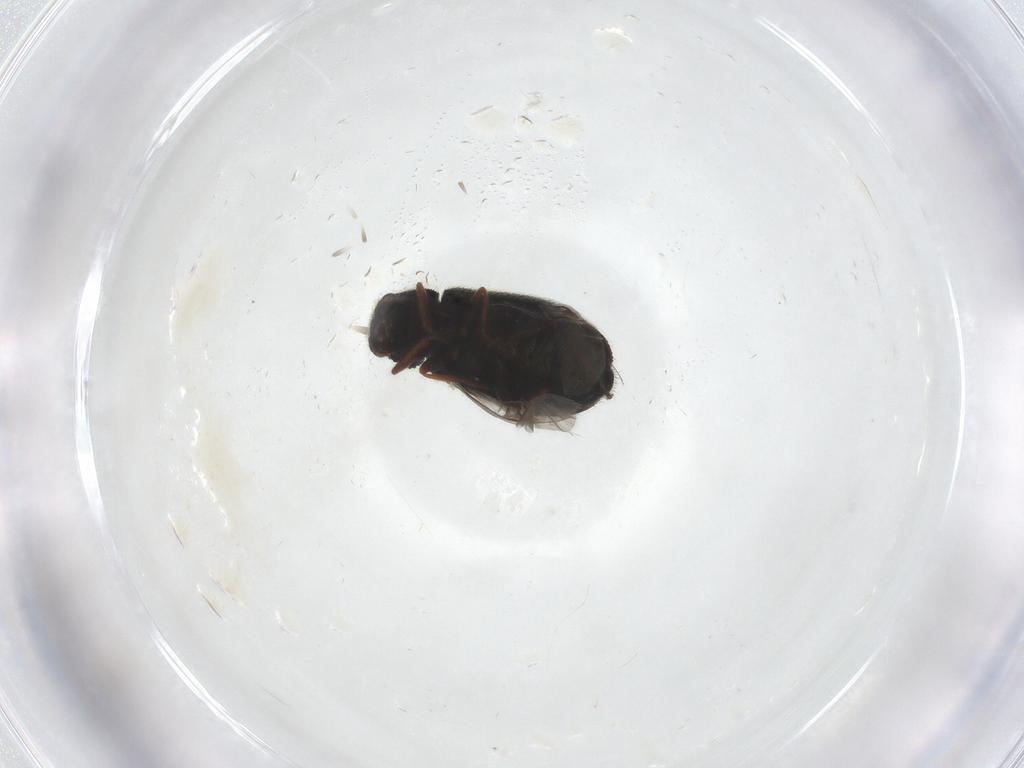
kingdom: Animalia
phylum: Arthropoda
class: Insecta
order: Coleoptera
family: Melyridae
